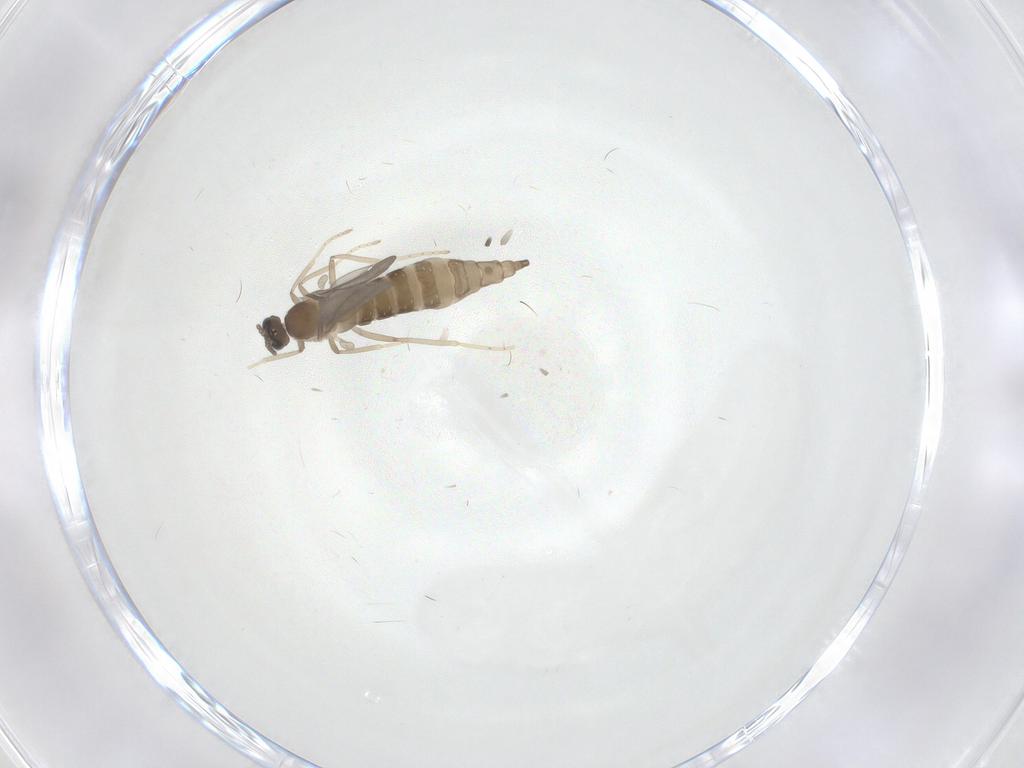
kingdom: Animalia
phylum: Arthropoda
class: Insecta
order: Diptera
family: Cecidomyiidae
